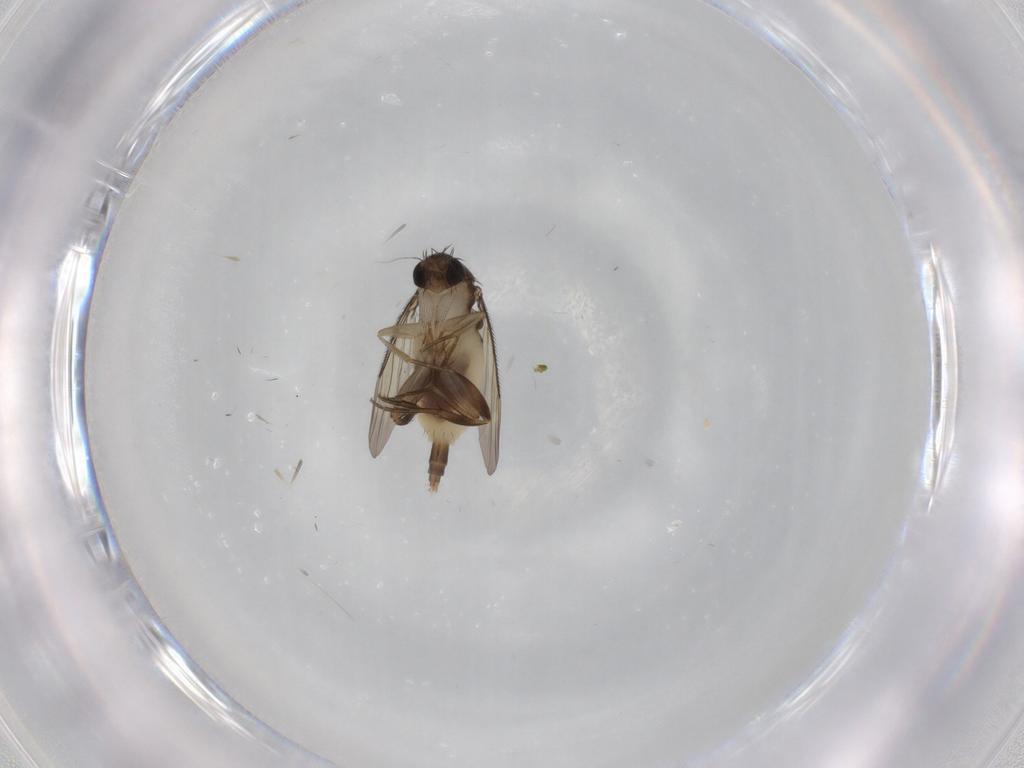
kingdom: Animalia
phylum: Arthropoda
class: Insecta
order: Diptera
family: Phoridae
